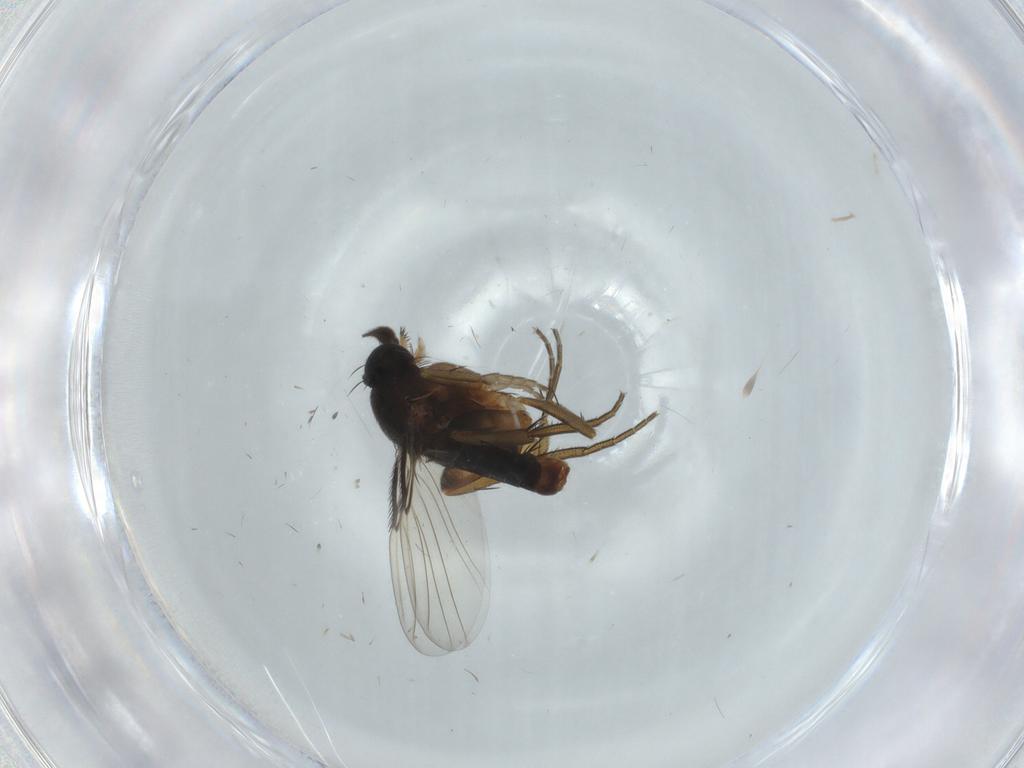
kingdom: Animalia
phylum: Arthropoda
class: Insecta
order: Diptera
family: Phoridae
